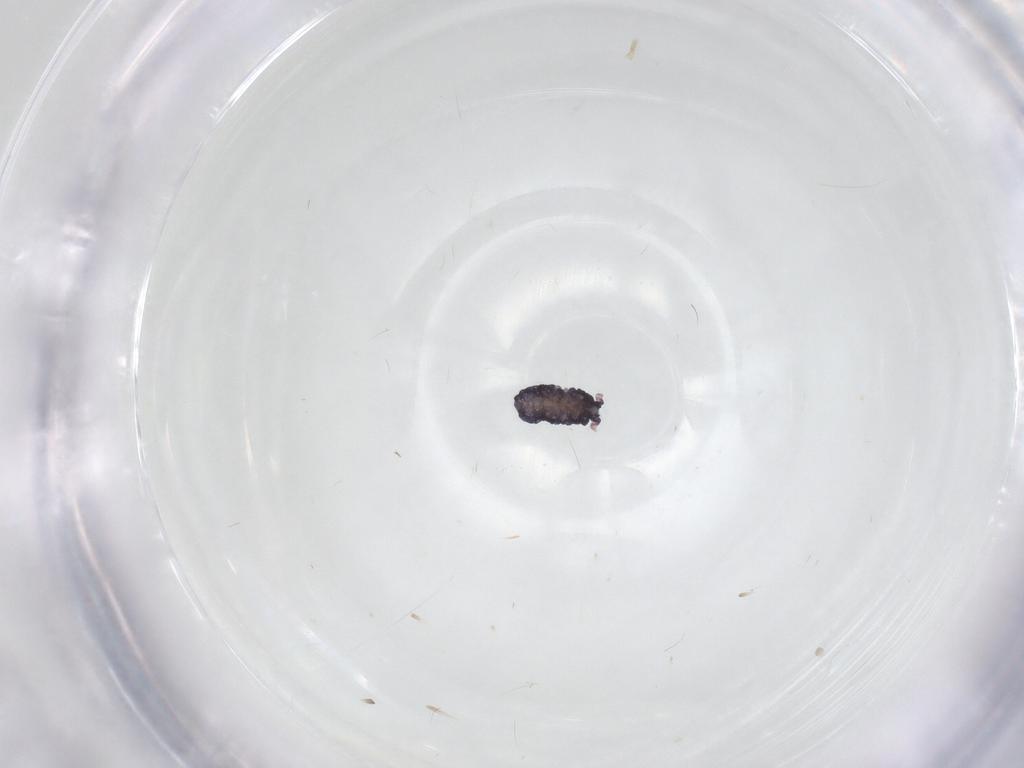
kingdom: Animalia
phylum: Arthropoda
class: Collembola
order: Poduromorpha
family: Neanuridae
